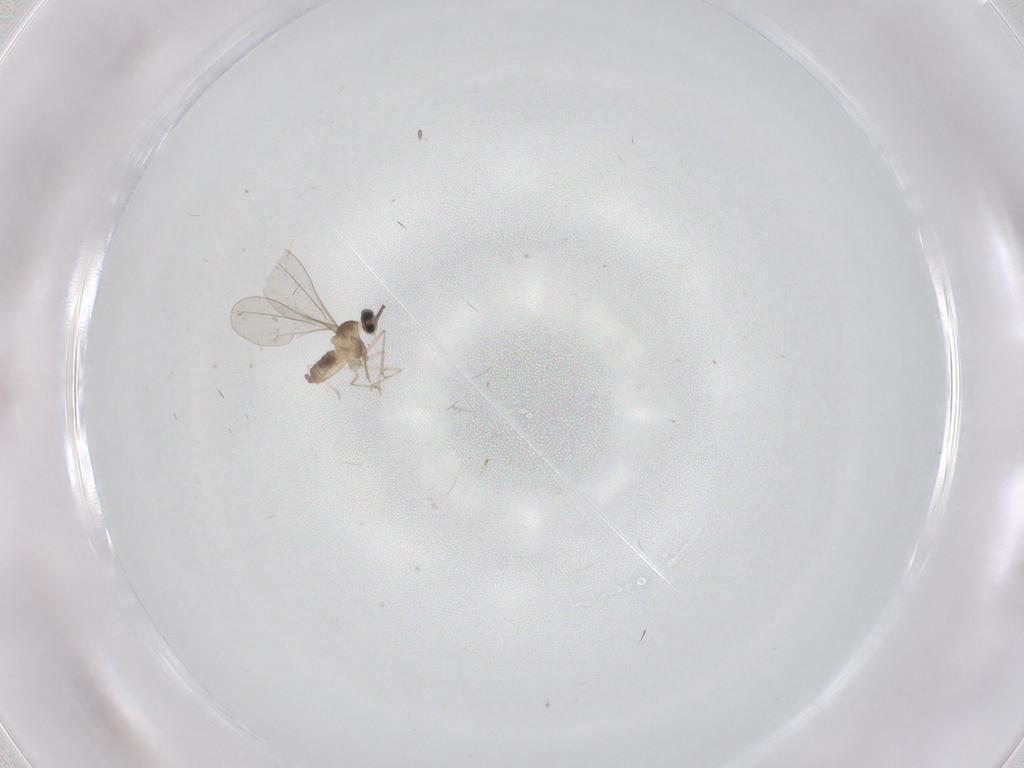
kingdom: Animalia
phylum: Arthropoda
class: Insecta
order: Diptera
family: Cecidomyiidae
